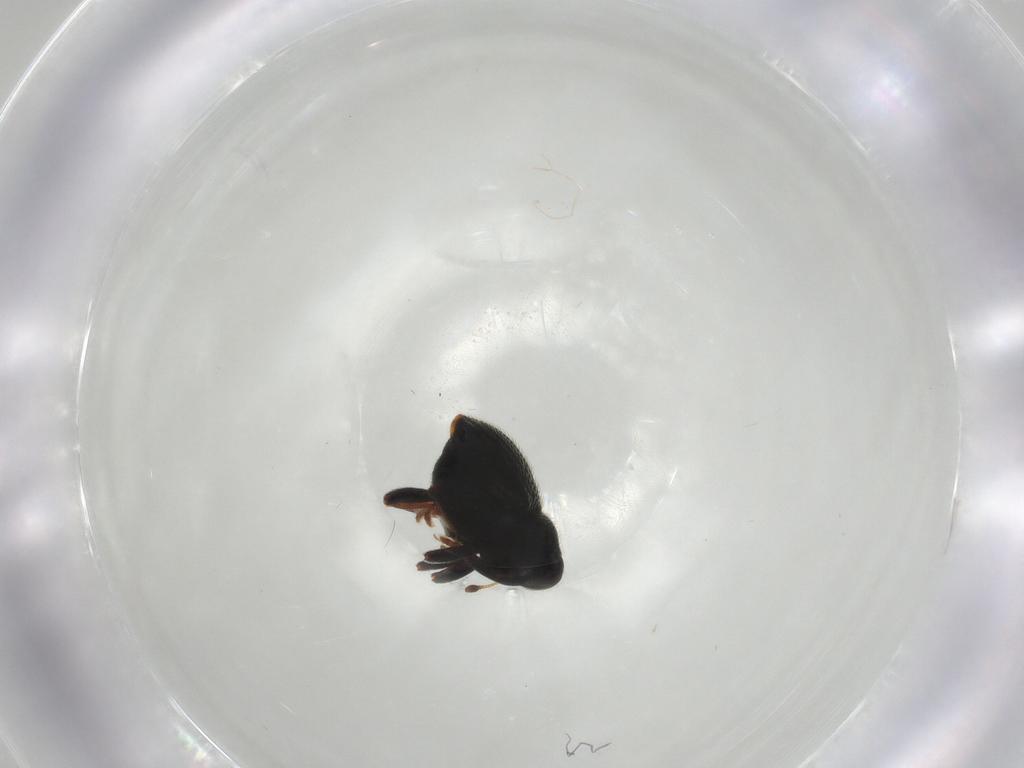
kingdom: Animalia
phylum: Arthropoda
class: Insecta
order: Coleoptera
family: Curculionidae
